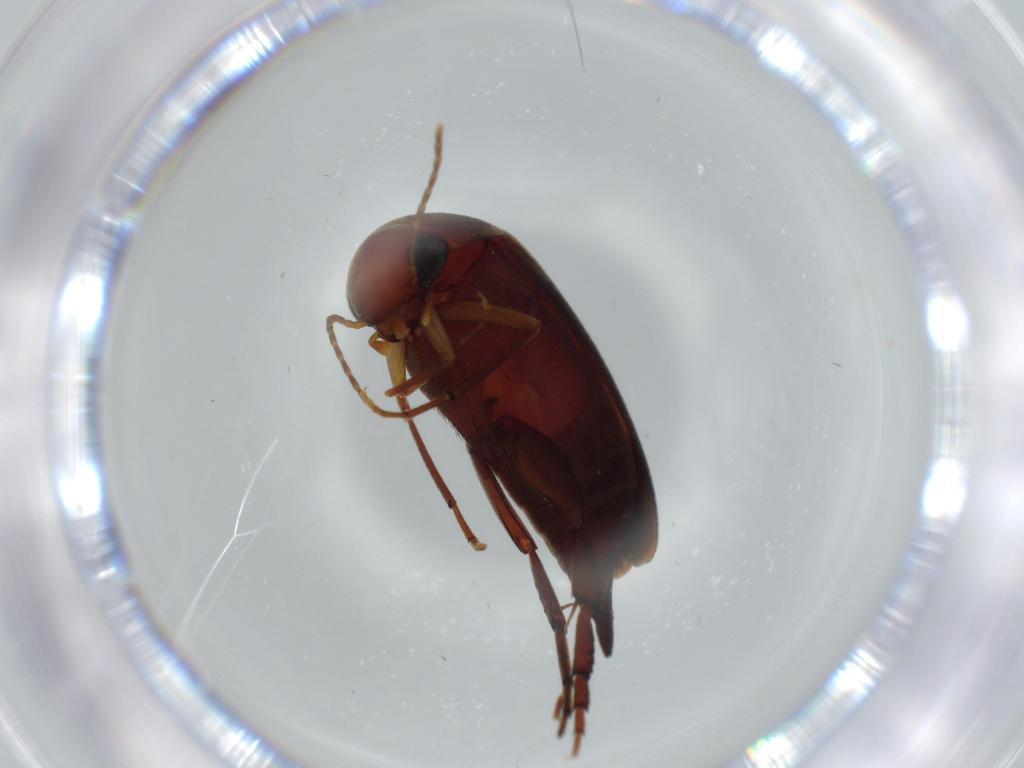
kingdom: Animalia
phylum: Arthropoda
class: Insecta
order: Coleoptera
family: Mordellidae
